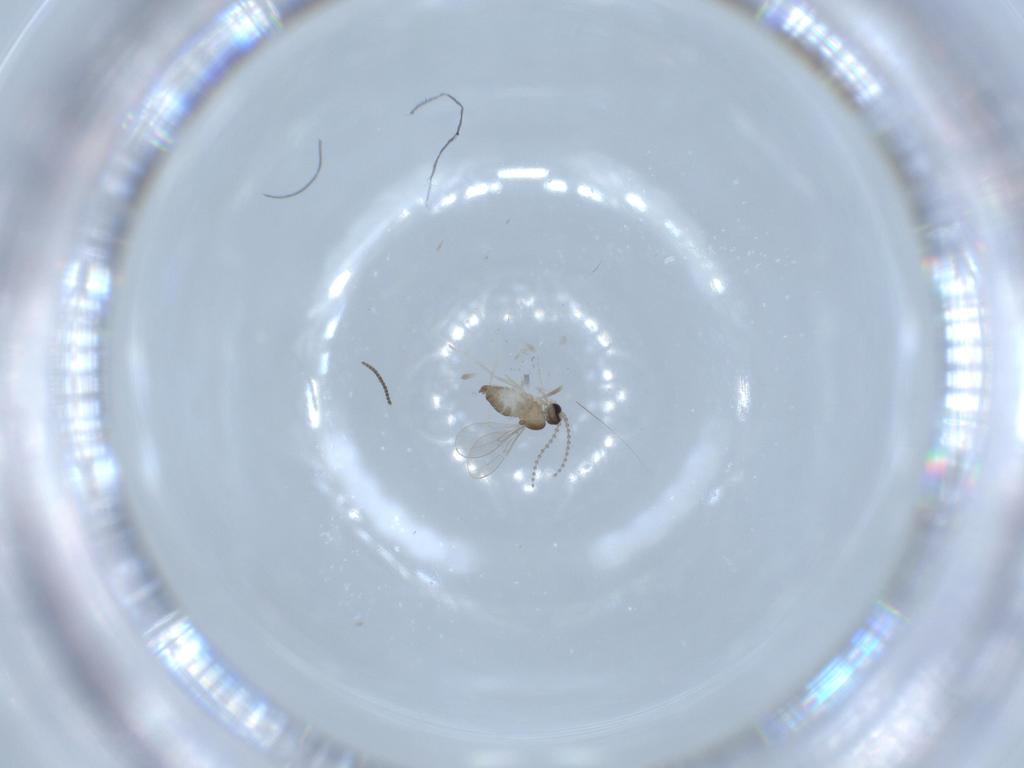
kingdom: Animalia
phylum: Arthropoda
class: Insecta
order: Diptera
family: Cecidomyiidae
